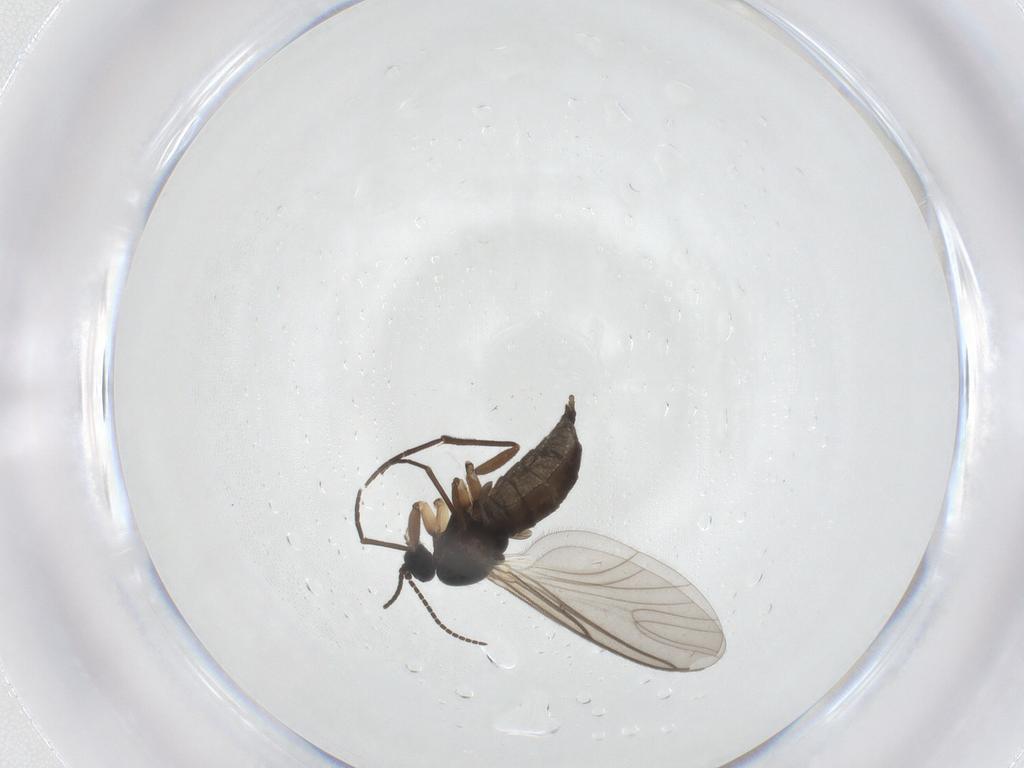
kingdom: Animalia
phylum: Arthropoda
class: Insecta
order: Diptera
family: Sciaridae
